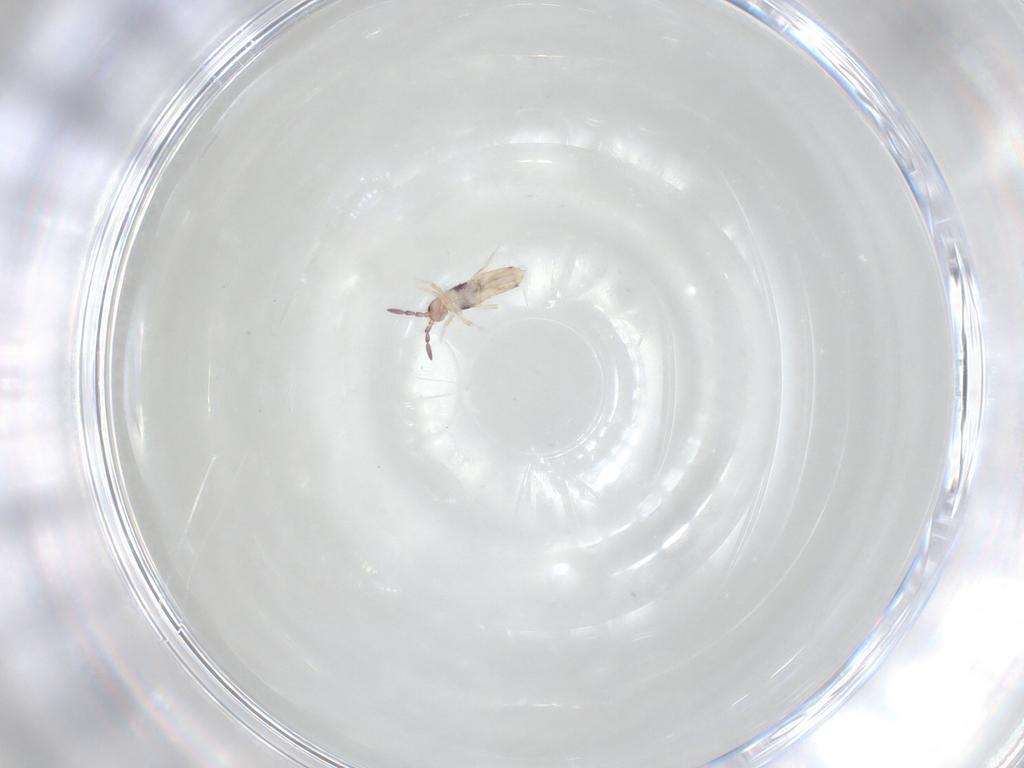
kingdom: Animalia
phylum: Arthropoda
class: Collembola
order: Entomobryomorpha
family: Entomobryidae
